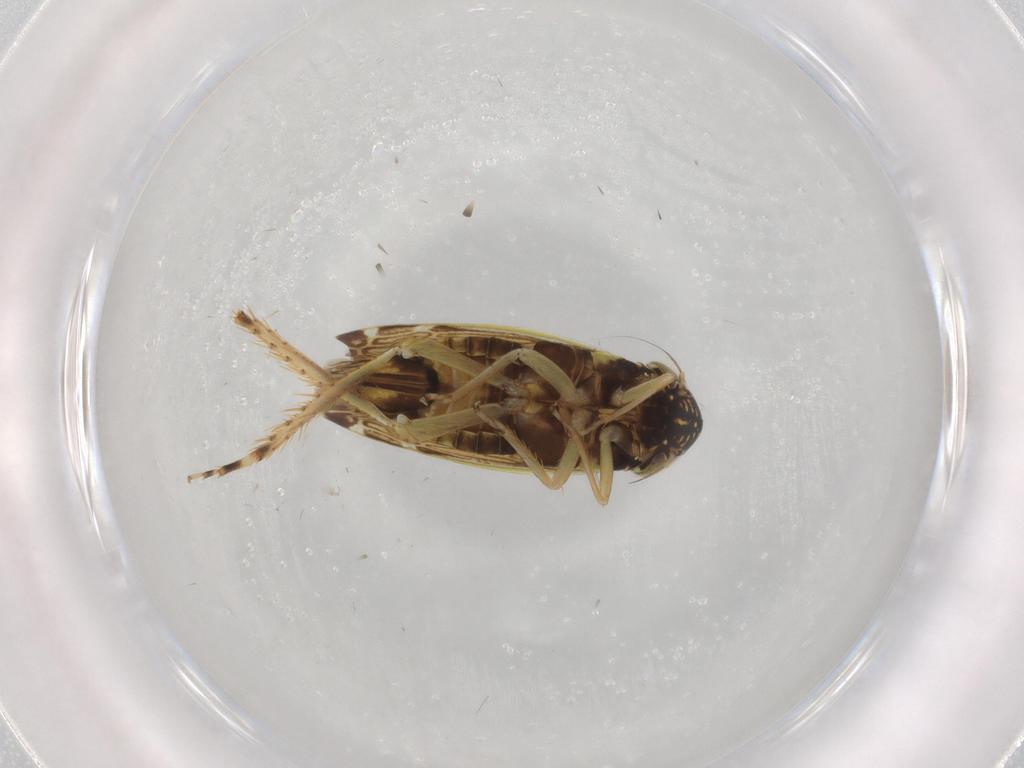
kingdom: Animalia
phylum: Arthropoda
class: Insecta
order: Hemiptera
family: Cicadellidae
